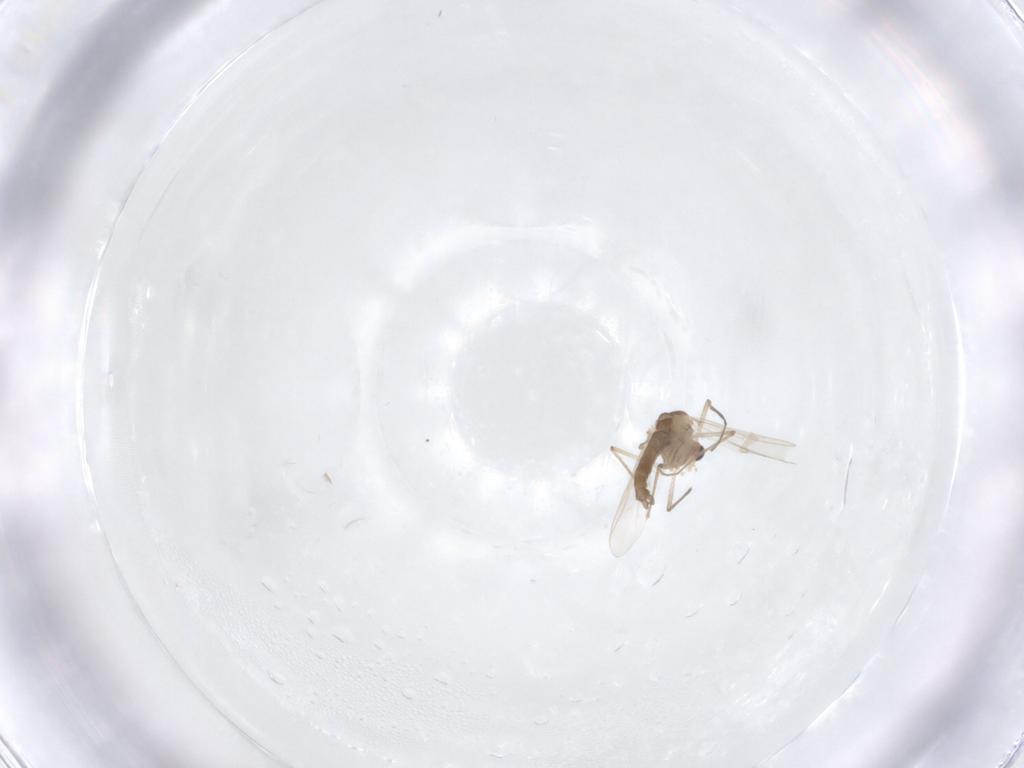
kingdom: Animalia
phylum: Arthropoda
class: Insecta
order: Diptera
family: Chironomidae
